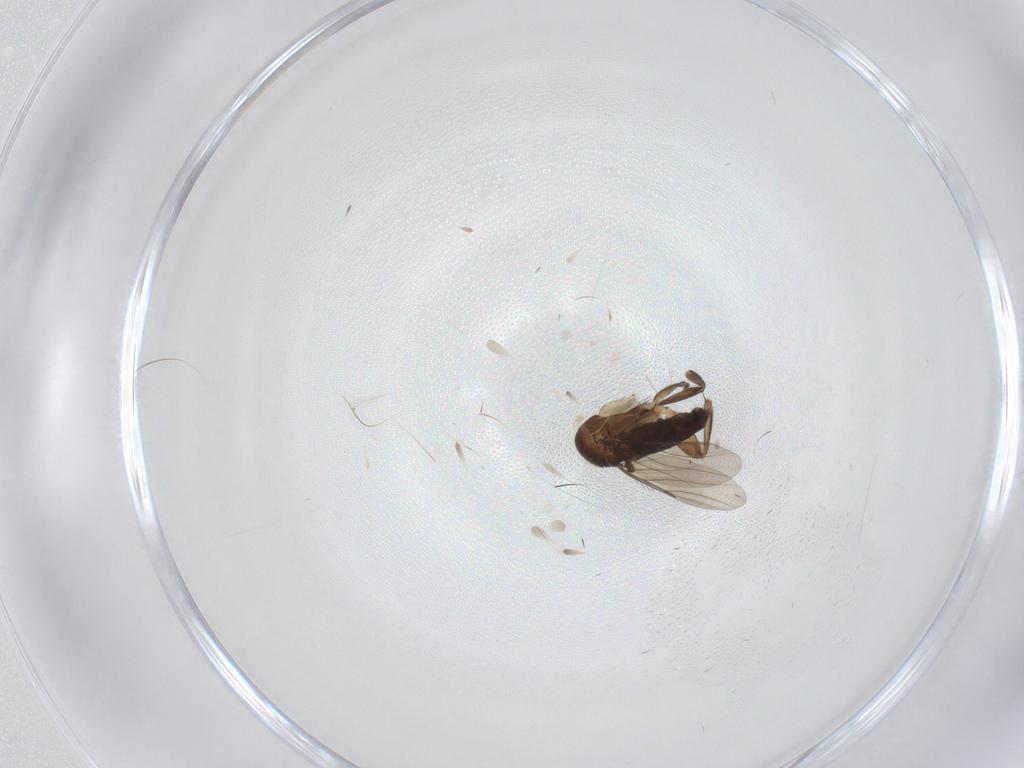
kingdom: Animalia
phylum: Arthropoda
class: Insecta
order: Diptera
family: Phoridae
